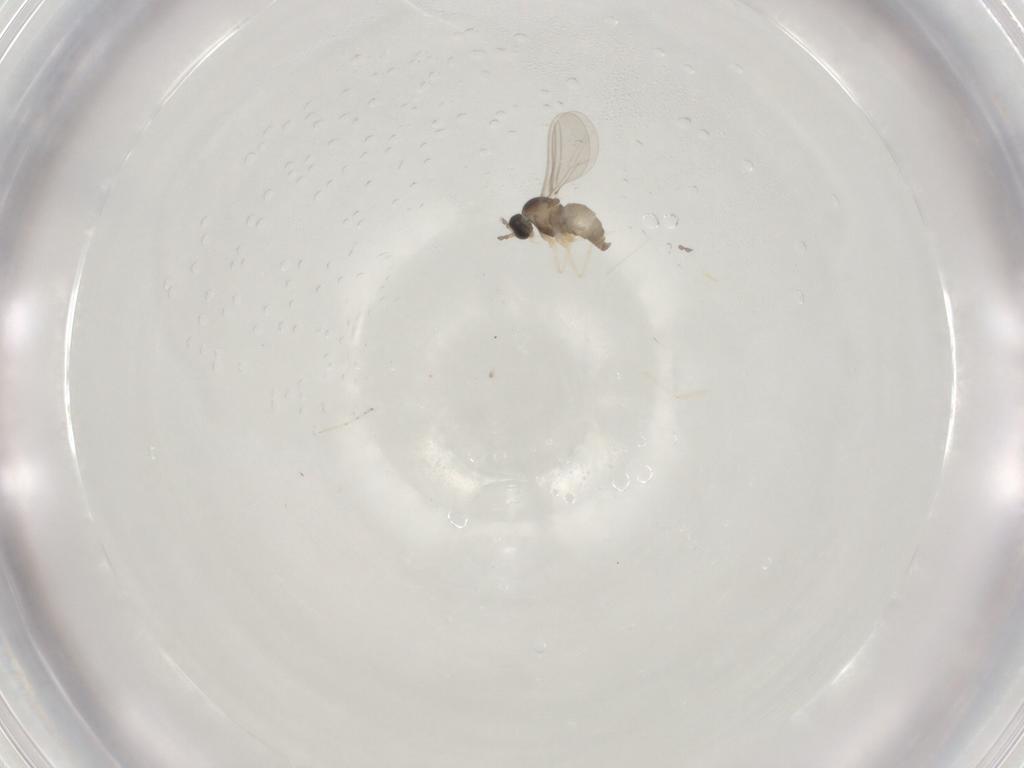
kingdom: Animalia
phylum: Arthropoda
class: Insecta
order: Diptera
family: Cecidomyiidae
